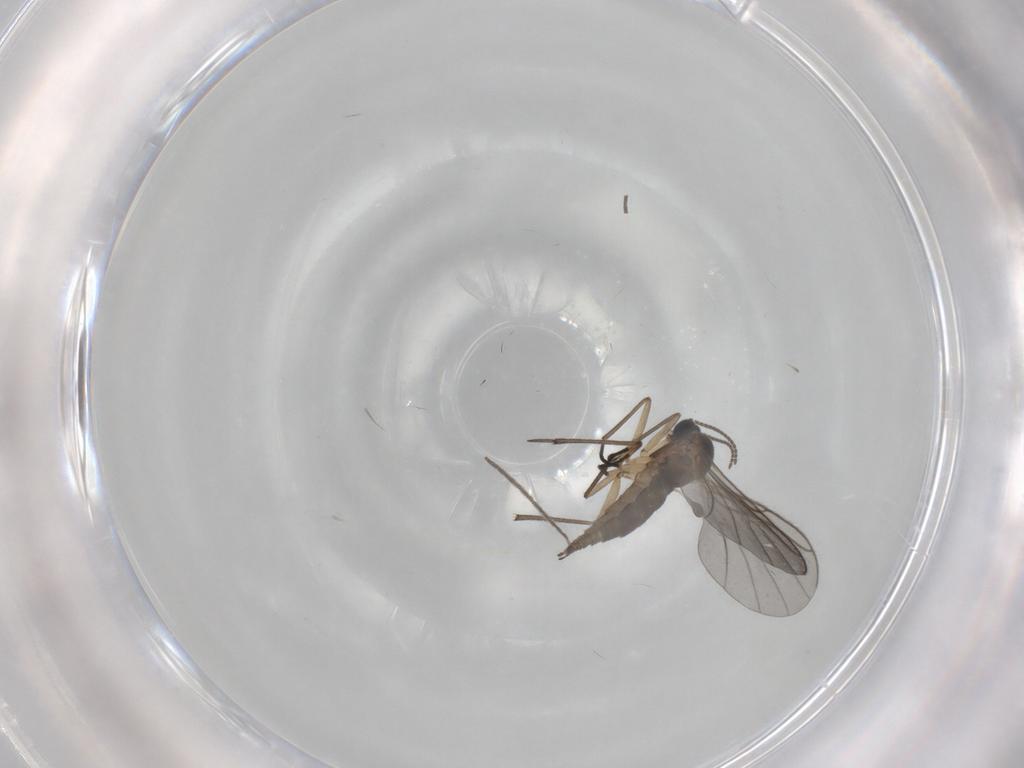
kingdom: Animalia
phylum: Arthropoda
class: Insecta
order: Diptera
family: Sciaridae
